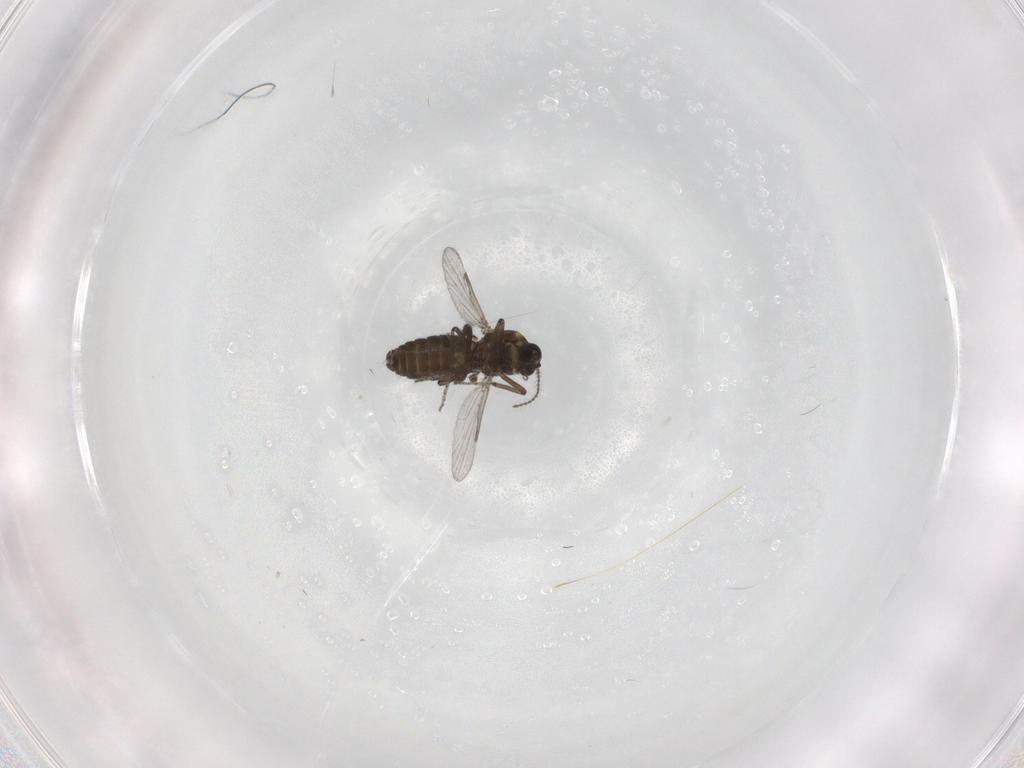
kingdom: Animalia
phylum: Arthropoda
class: Insecta
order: Diptera
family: Ceratopogonidae
